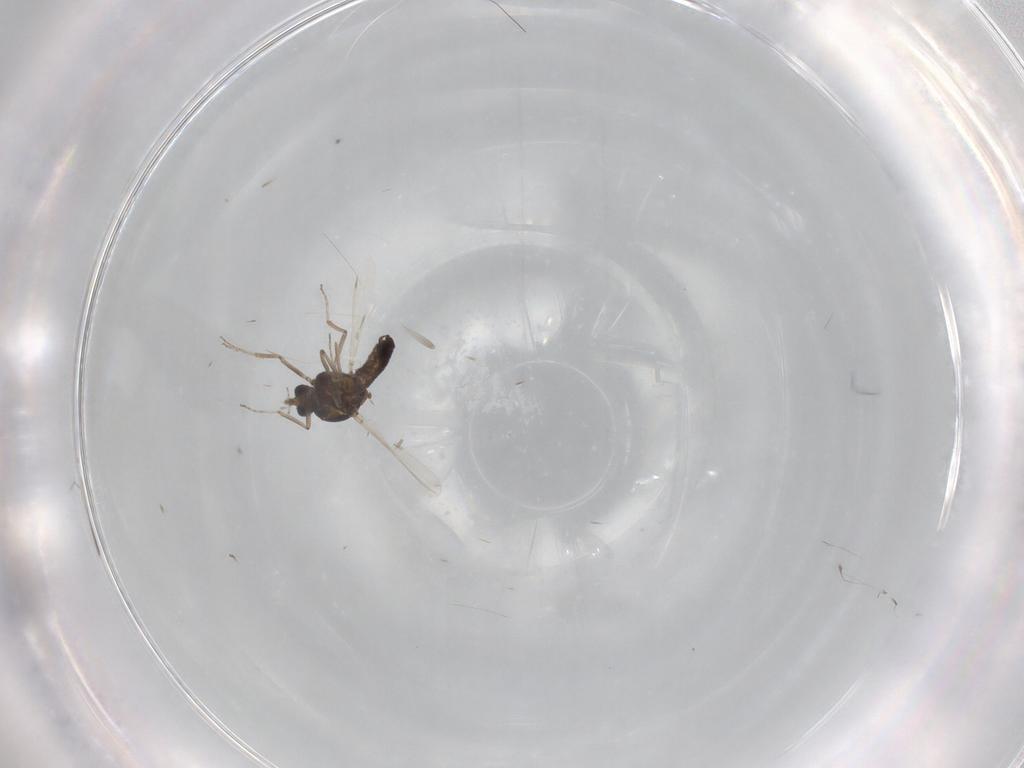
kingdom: Animalia
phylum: Arthropoda
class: Insecta
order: Diptera
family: Ceratopogonidae
